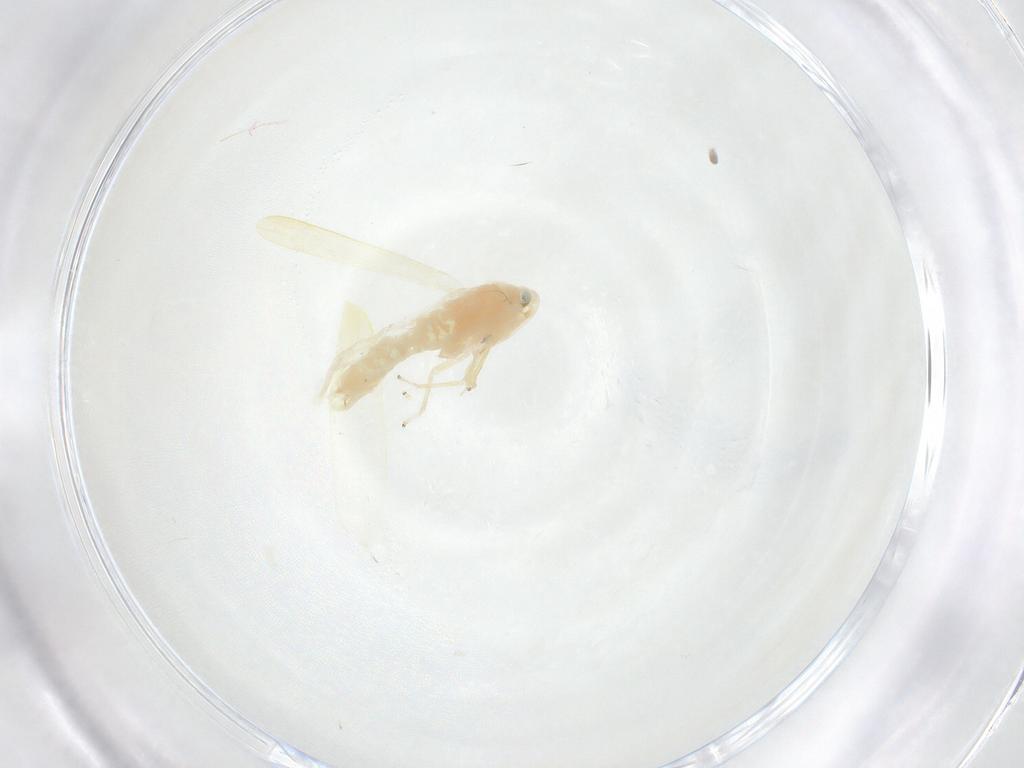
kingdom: Animalia
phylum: Arthropoda
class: Insecta
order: Hemiptera
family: Cicadellidae
